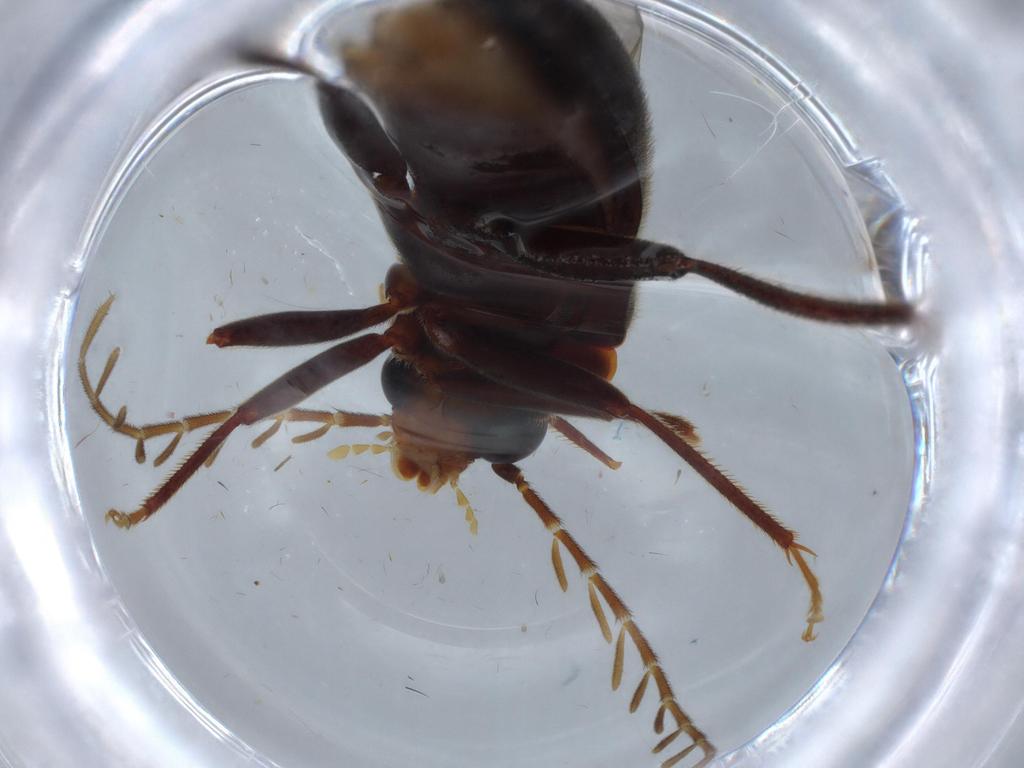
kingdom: Animalia
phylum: Arthropoda
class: Insecta
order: Coleoptera
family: Ptilodactylidae
